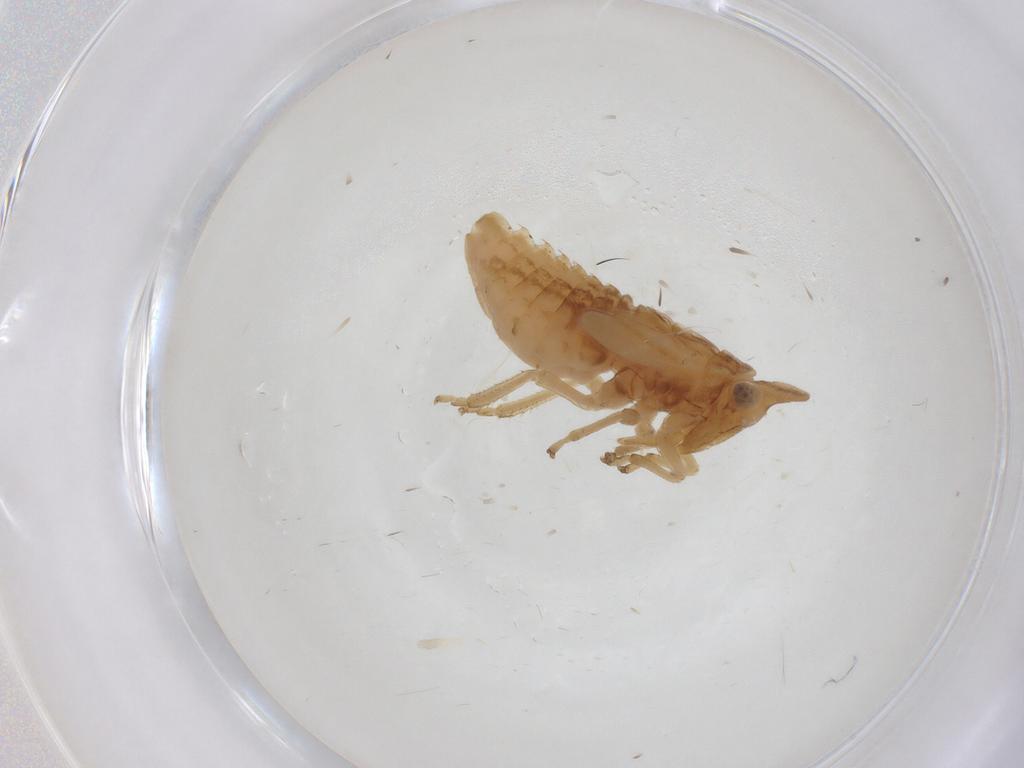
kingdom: Animalia
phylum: Arthropoda
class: Insecta
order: Hemiptera
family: Cicadellidae
